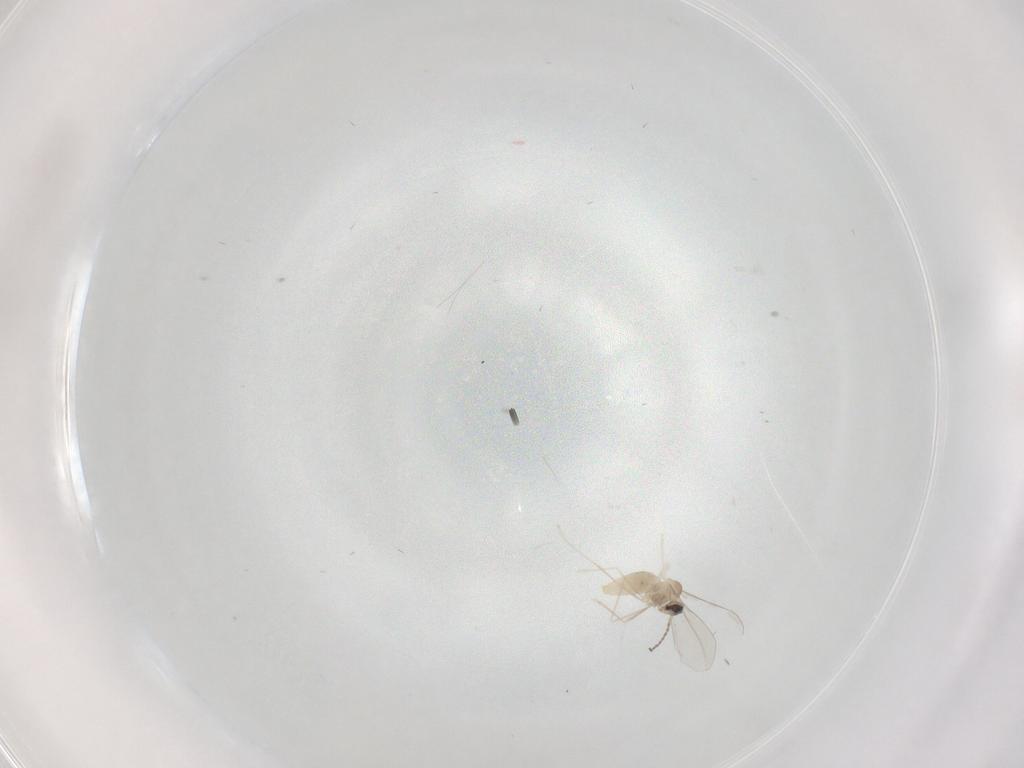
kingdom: Animalia
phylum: Arthropoda
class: Insecta
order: Diptera
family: Cecidomyiidae
